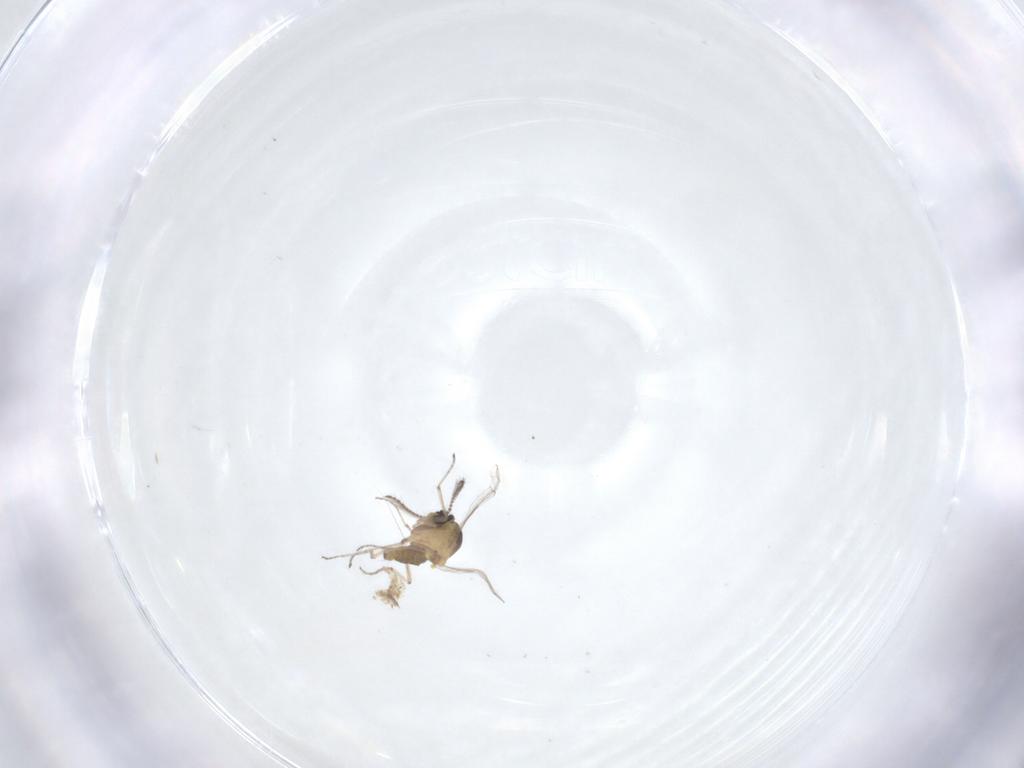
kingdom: Animalia
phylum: Arthropoda
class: Insecta
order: Diptera
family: Ceratopogonidae
